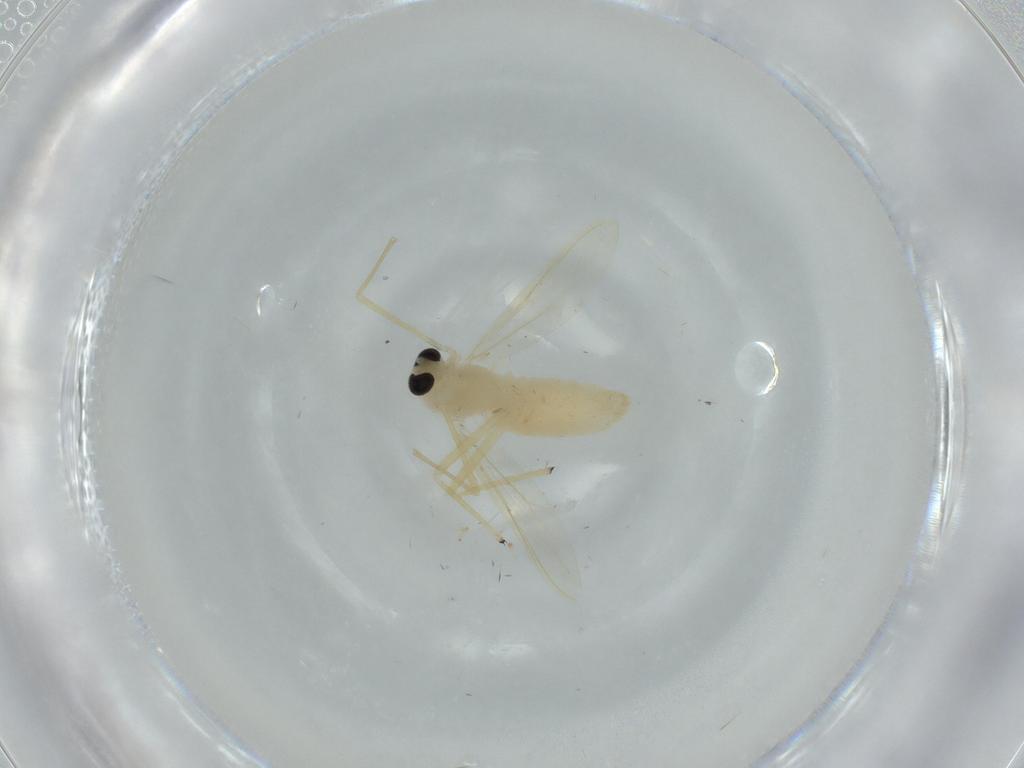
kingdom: Animalia
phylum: Arthropoda
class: Insecta
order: Diptera
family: Chironomidae
